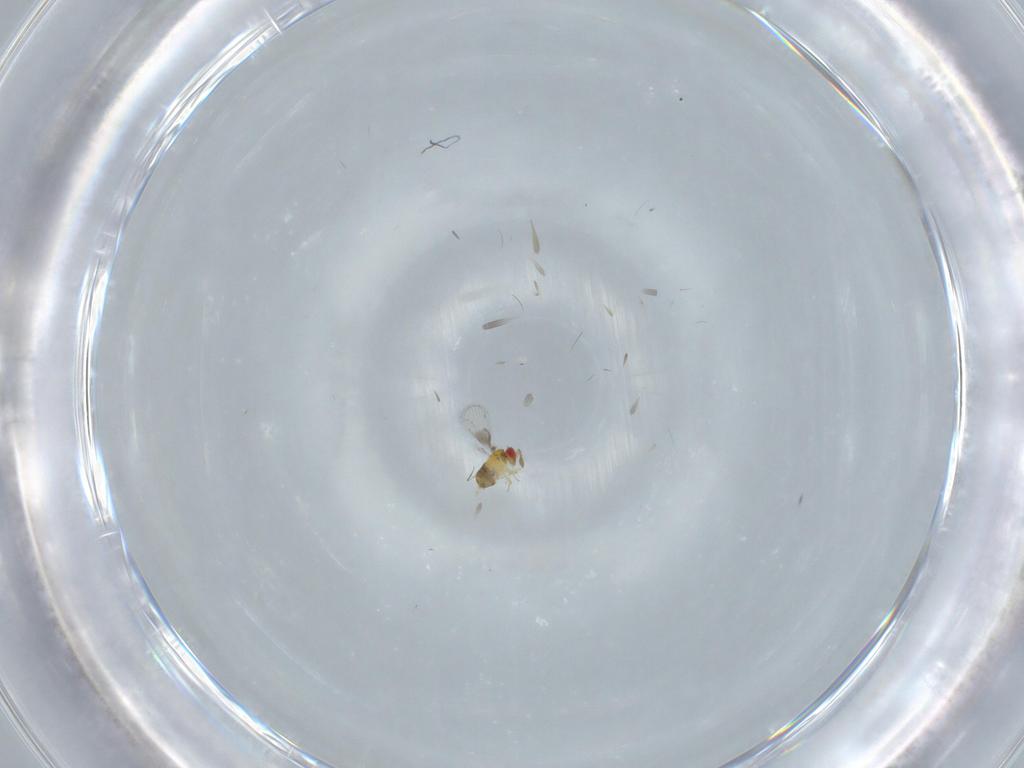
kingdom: Animalia
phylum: Arthropoda
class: Insecta
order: Hymenoptera
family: Trichogrammatidae
